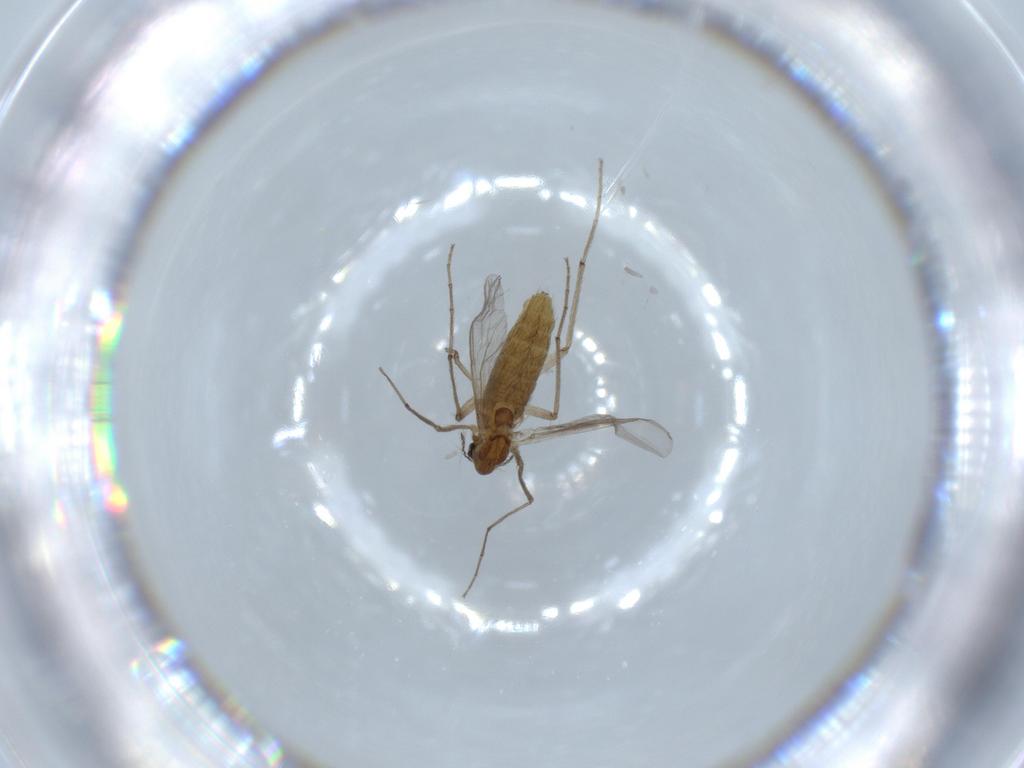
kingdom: Animalia
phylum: Arthropoda
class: Insecta
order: Diptera
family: Chironomidae
